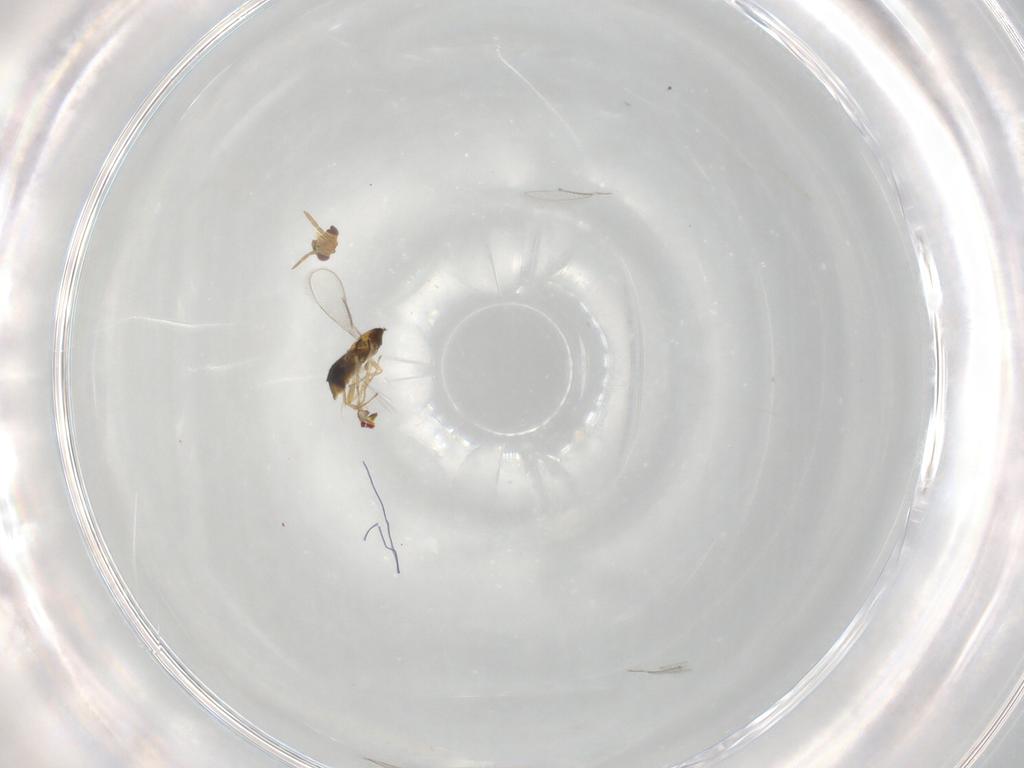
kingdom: Animalia
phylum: Arthropoda
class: Insecta
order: Hymenoptera
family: Aphelinidae
